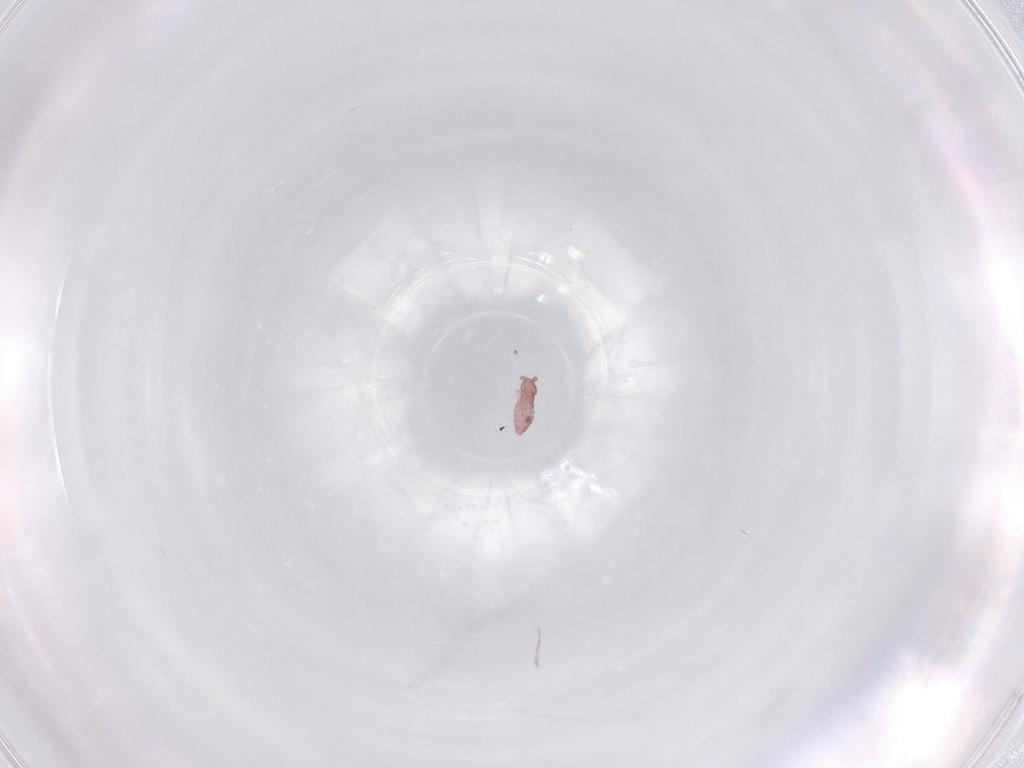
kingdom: Animalia
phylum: Arthropoda
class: Collembola
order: Poduromorpha
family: Hypogastruridae
